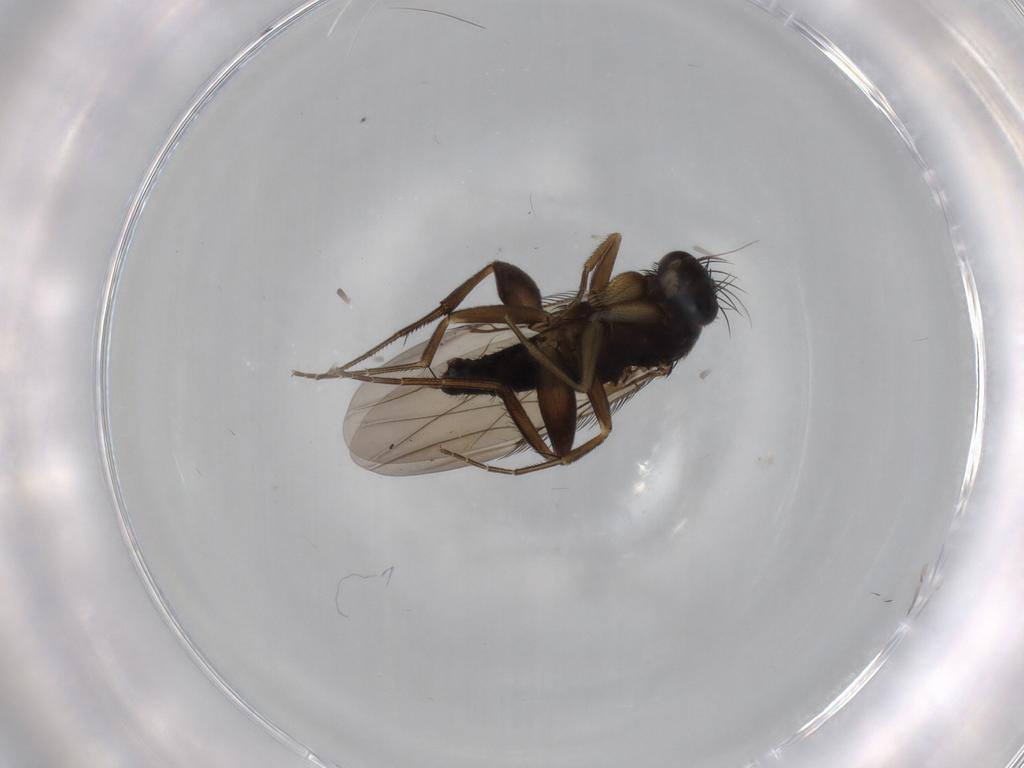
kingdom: Animalia
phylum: Arthropoda
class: Insecta
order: Diptera
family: Phoridae
